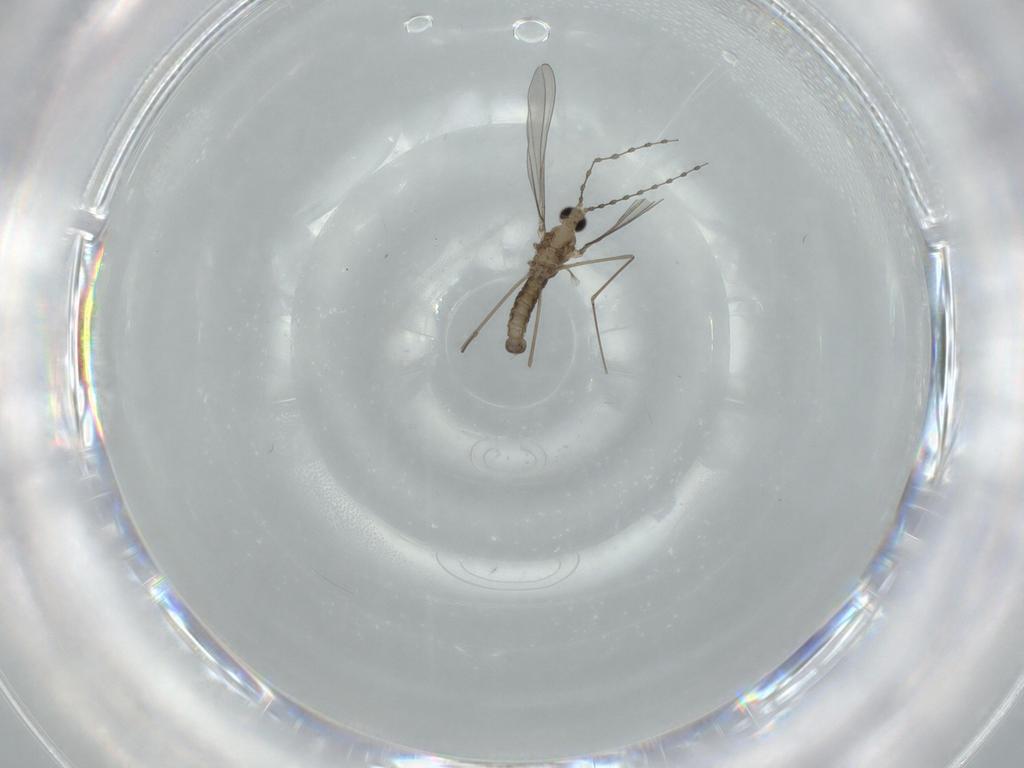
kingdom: Animalia
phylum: Arthropoda
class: Insecta
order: Diptera
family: Cecidomyiidae
